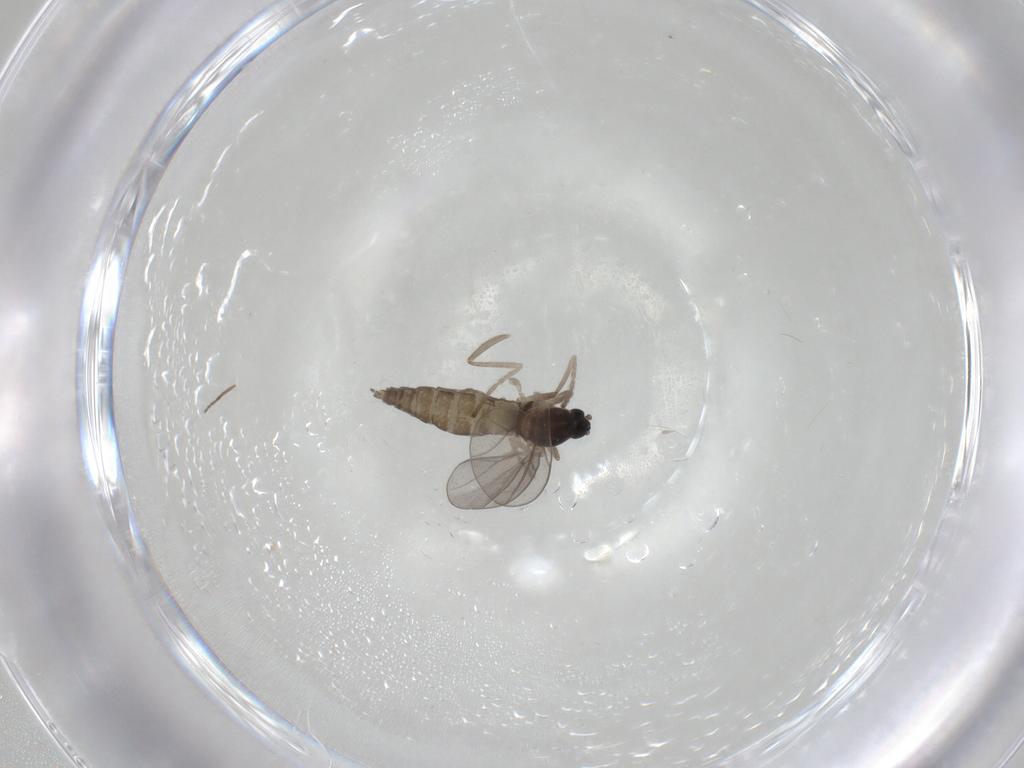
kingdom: Animalia
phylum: Arthropoda
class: Insecta
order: Diptera
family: Cecidomyiidae
